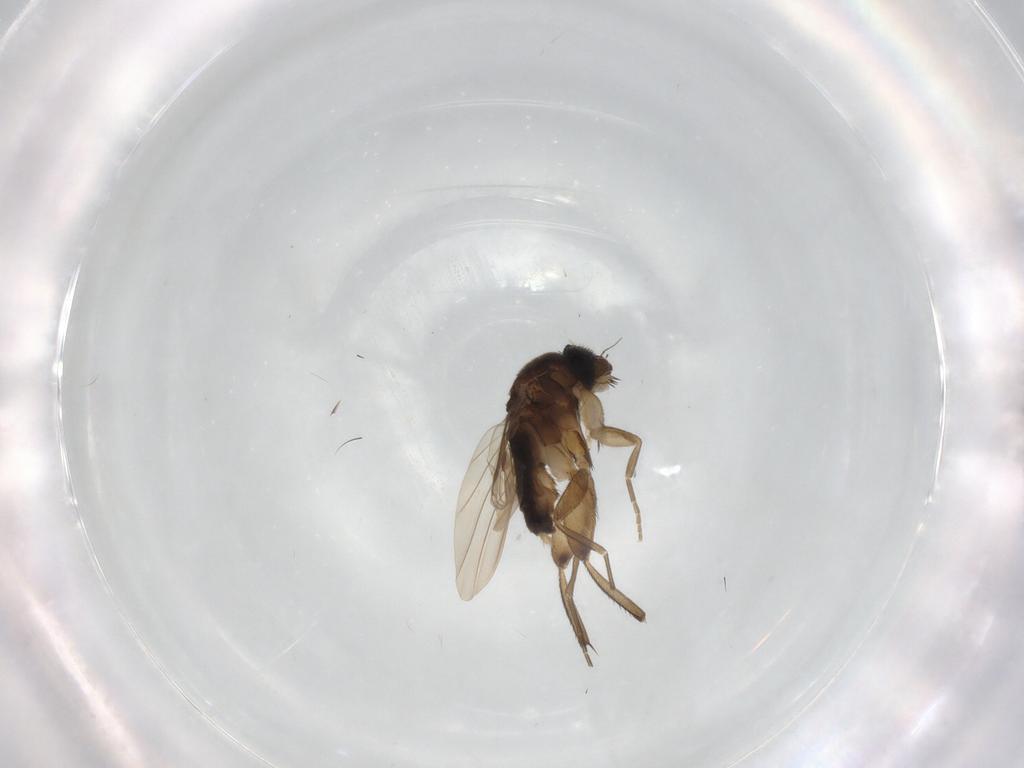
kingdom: Animalia
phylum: Arthropoda
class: Insecta
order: Diptera
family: Phoridae
